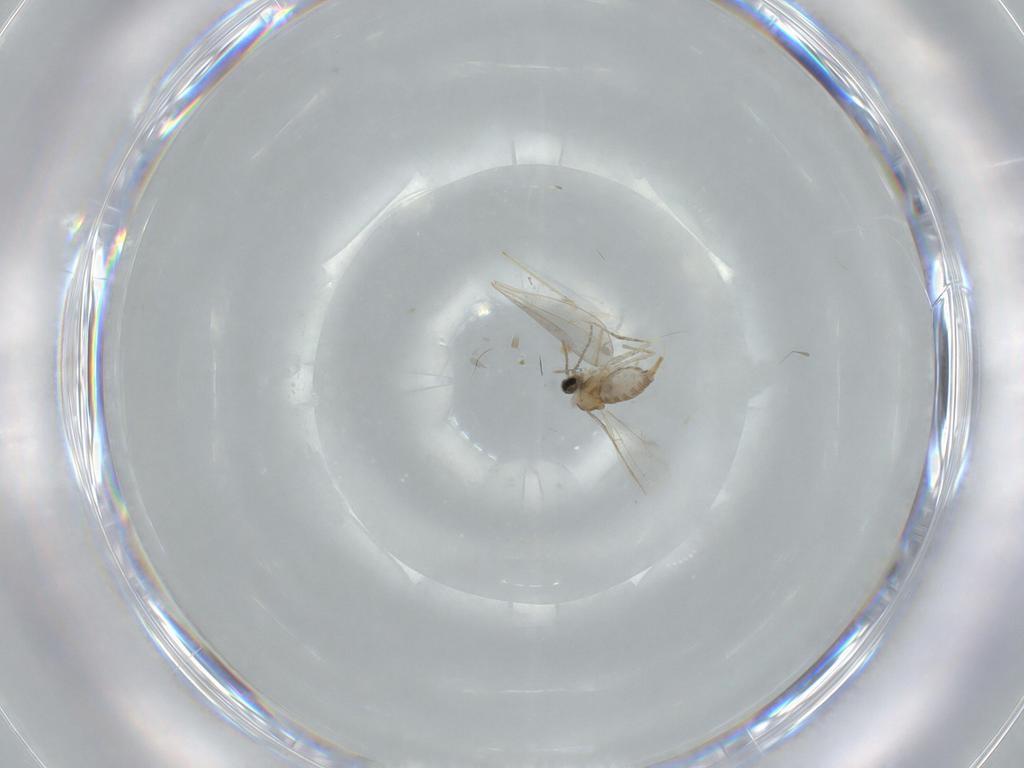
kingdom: Animalia
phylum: Arthropoda
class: Insecta
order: Diptera
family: Cecidomyiidae
